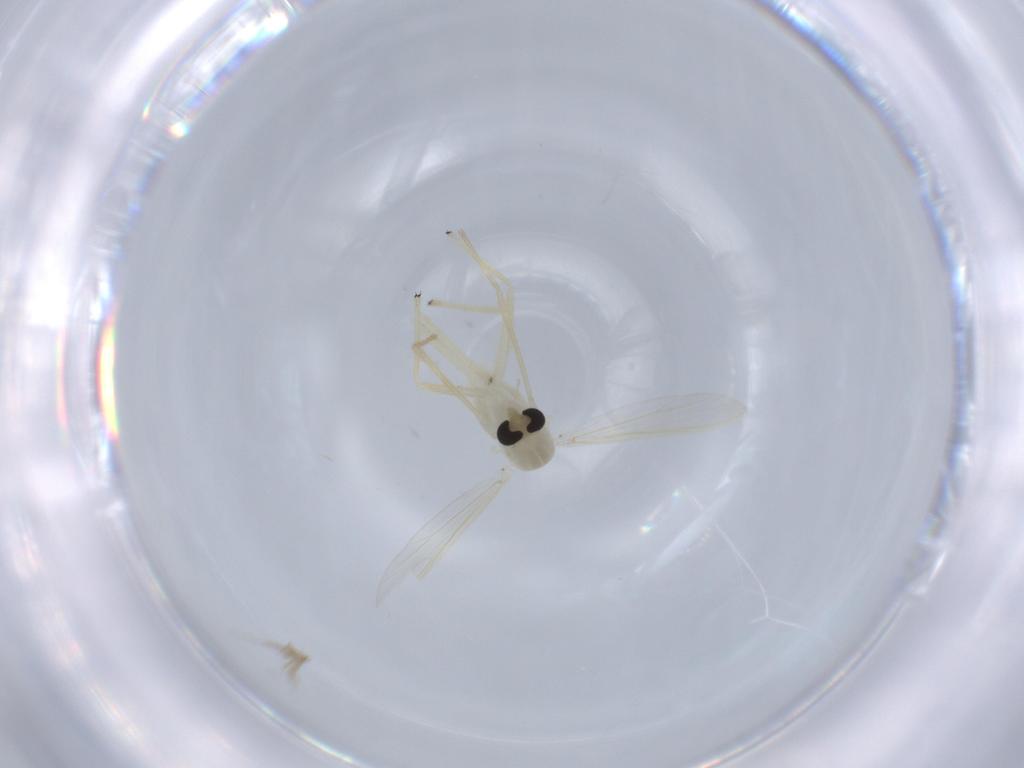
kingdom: Animalia
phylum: Arthropoda
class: Insecta
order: Diptera
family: Chironomidae
